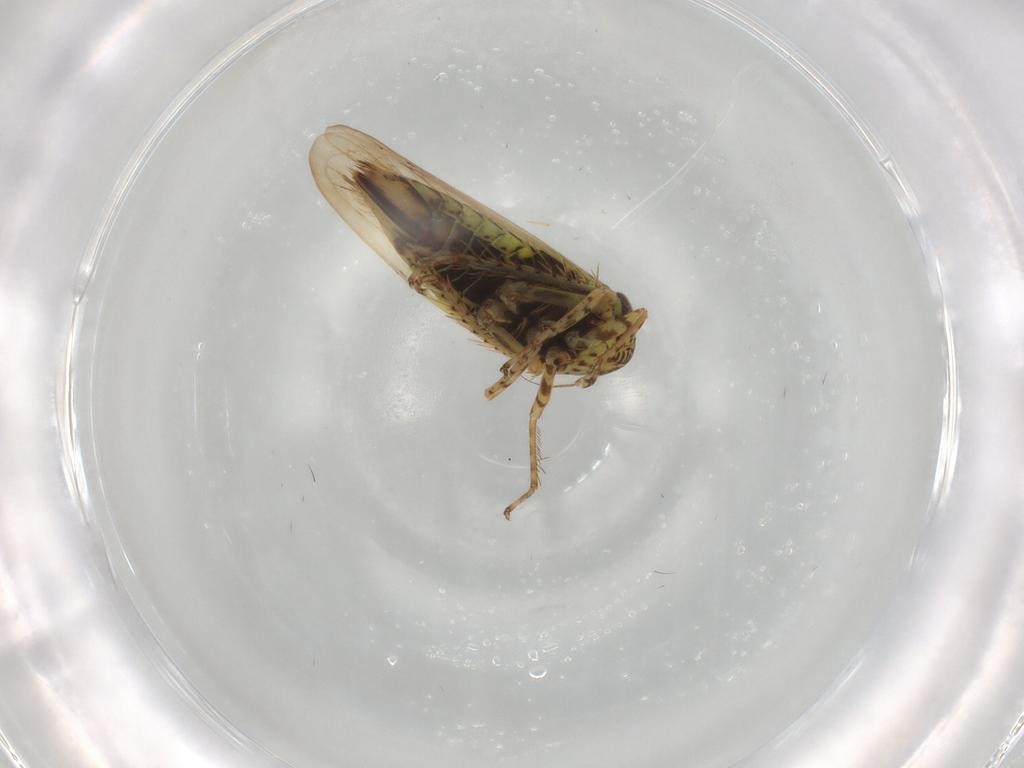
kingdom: Animalia
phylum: Arthropoda
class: Insecta
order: Hemiptera
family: Cicadellidae
